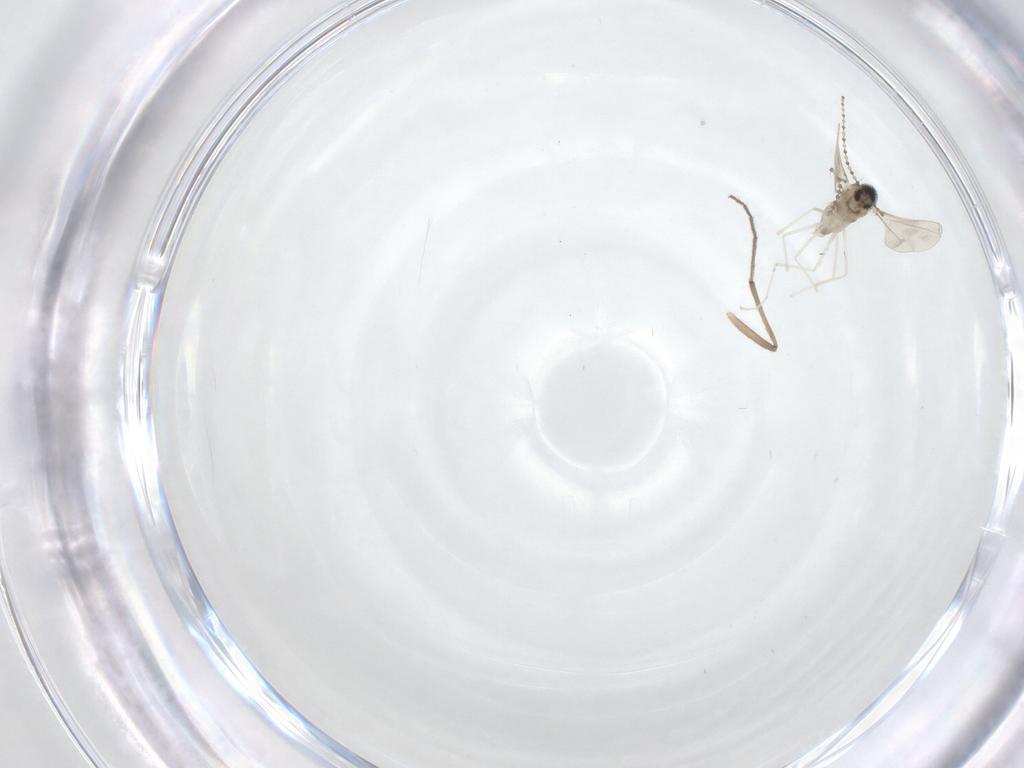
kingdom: Animalia
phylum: Arthropoda
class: Insecta
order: Diptera
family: Cecidomyiidae
